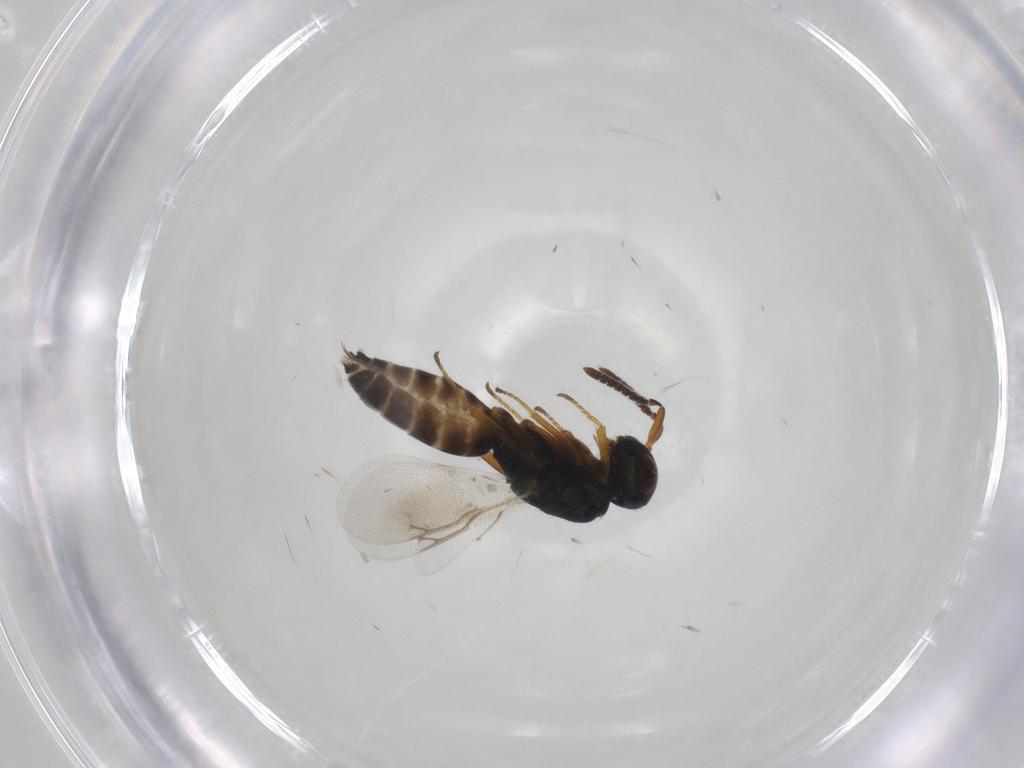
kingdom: Animalia
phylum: Arthropoda
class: Insecta
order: Hymenoptera
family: Pteromalidae
